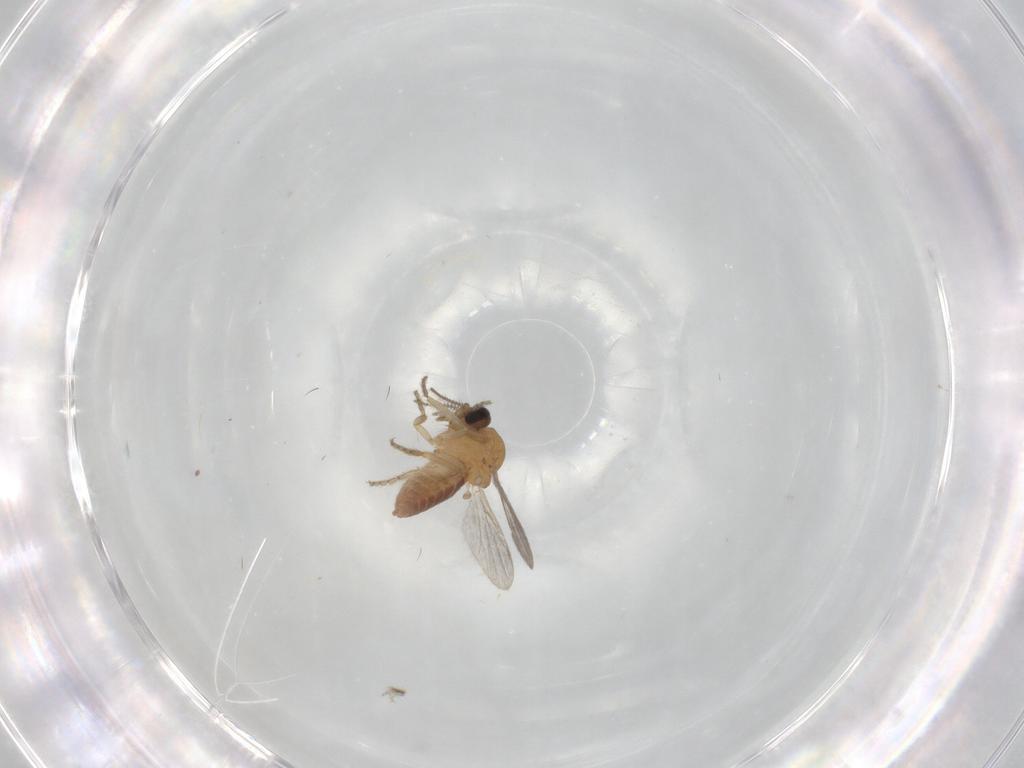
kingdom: Animalia
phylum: Arthropoda
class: Insecta
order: Diptera
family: Ceratopogonidae
